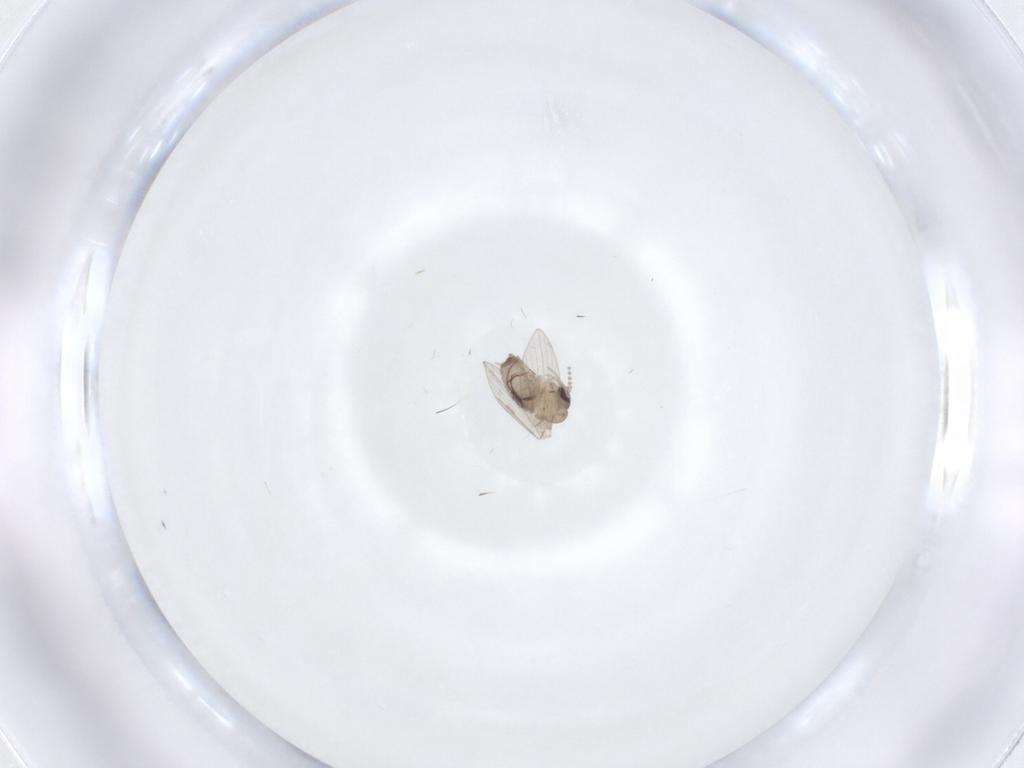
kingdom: Animalia
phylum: Arthropoda
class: Insecta
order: Diptera
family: Psychodidae
